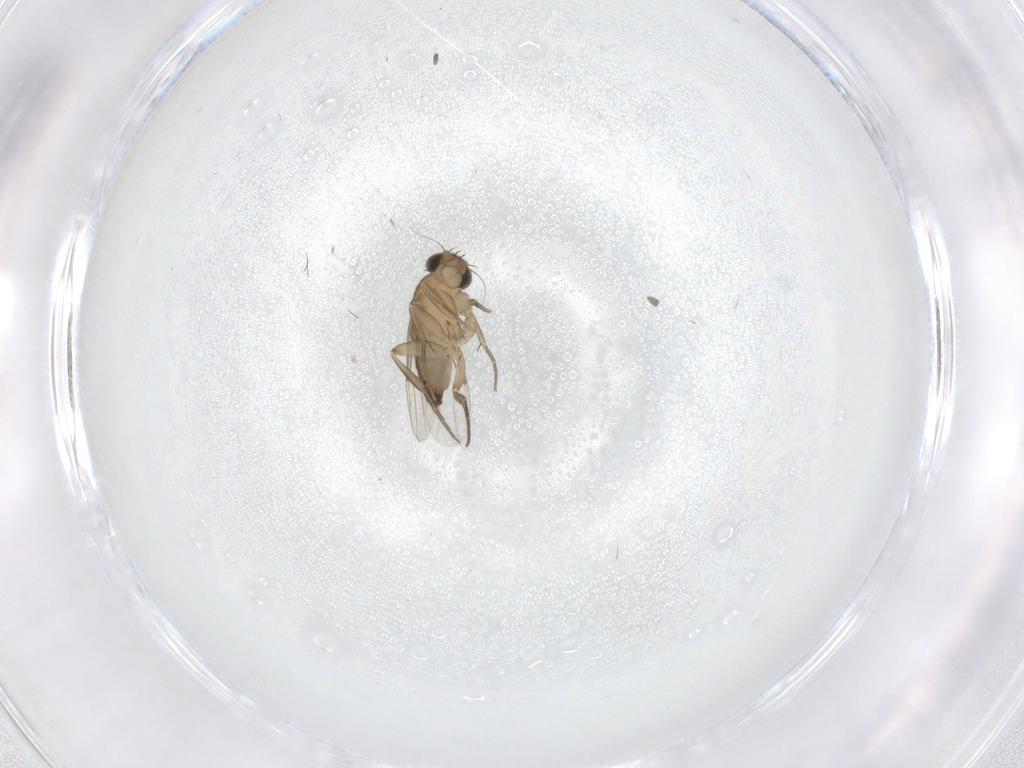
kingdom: Animalia
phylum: Arthropoda
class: Insecta
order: Diptera
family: Phoridae
